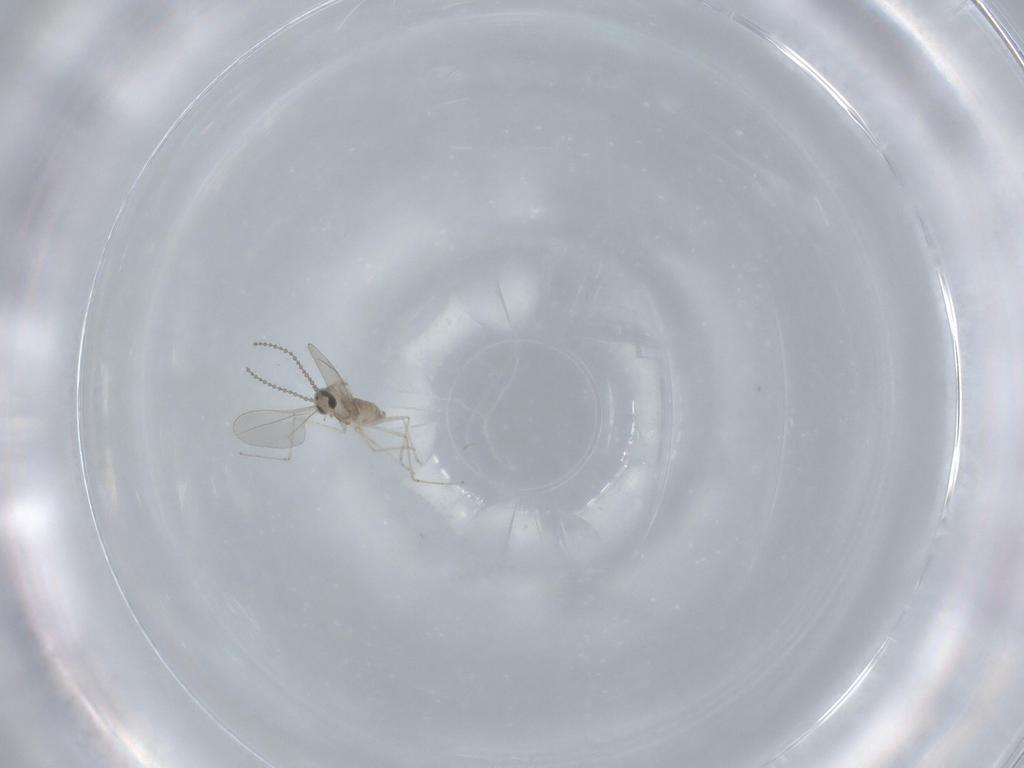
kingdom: Animalia
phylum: Arthropoda
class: Insecta
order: Diptera
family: Cecidomyiidae
